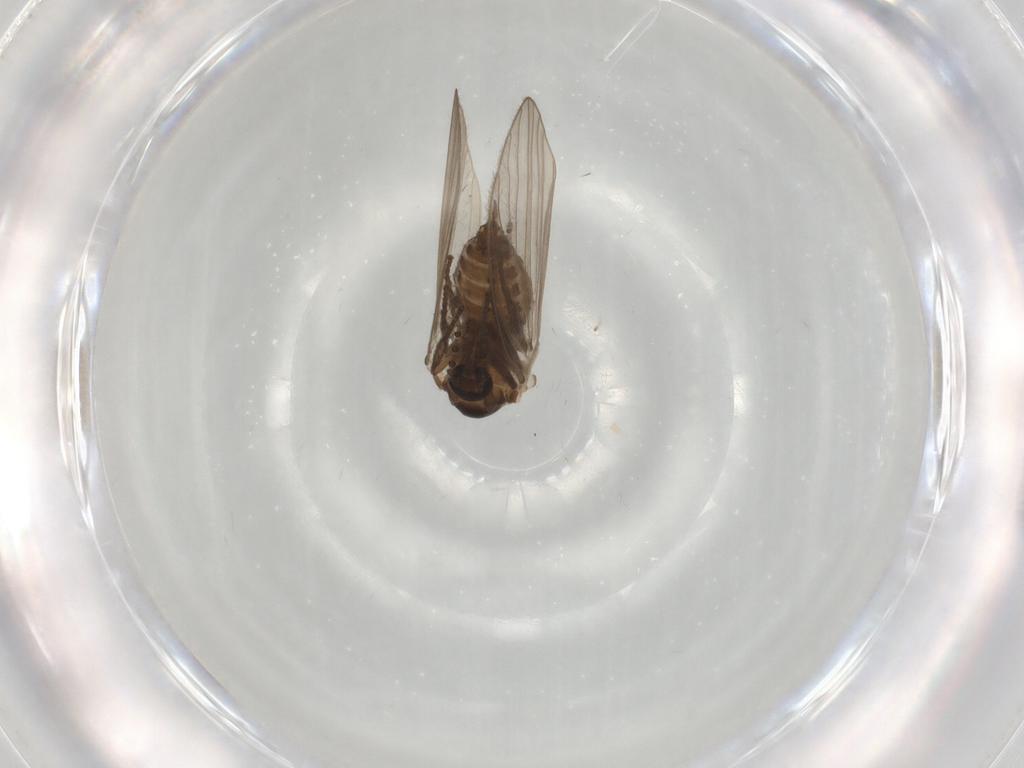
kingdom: Animalia
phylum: Arthropoda
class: Insecta
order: Diptera
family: Psychodidae
